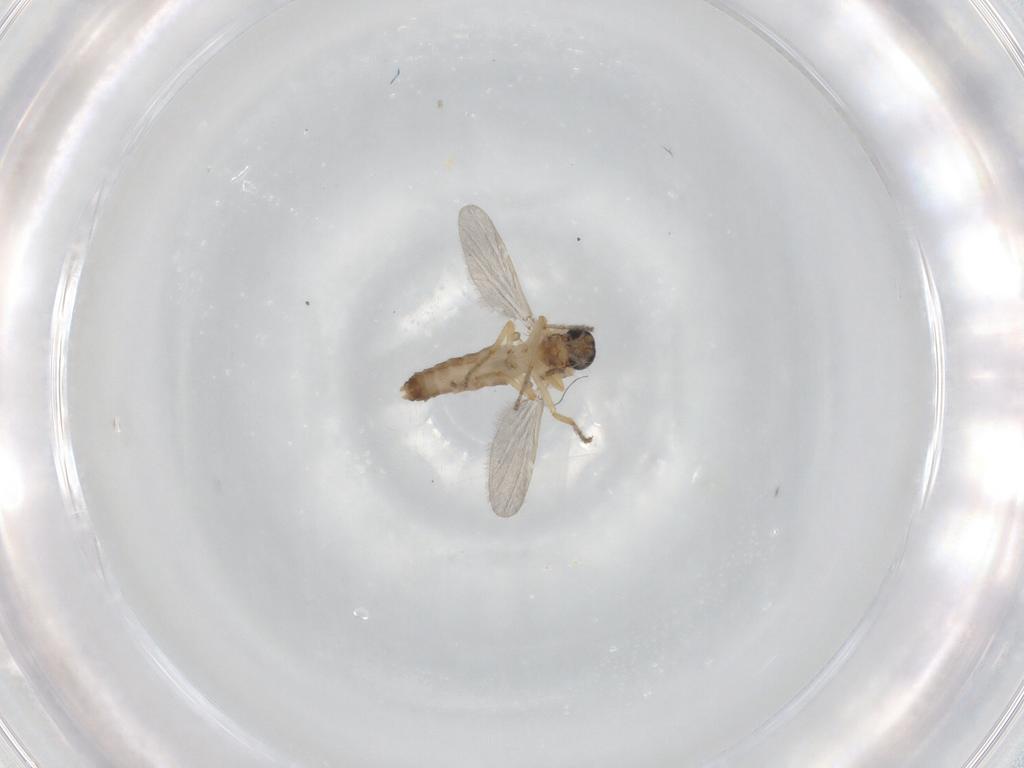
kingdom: Animalia
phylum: Arthropoda
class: Insecta
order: Diptera
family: Ceratopogonidae
